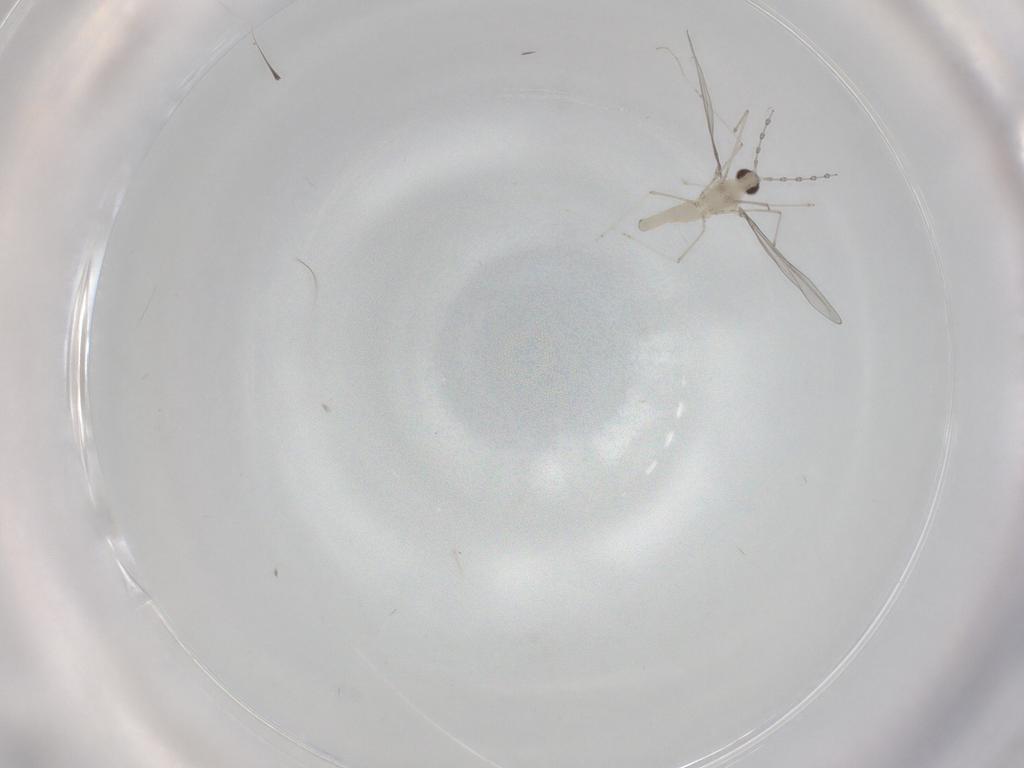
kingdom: Animalia
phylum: Arthropoda
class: Insecta
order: Diptera
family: Cecidomyiidae
